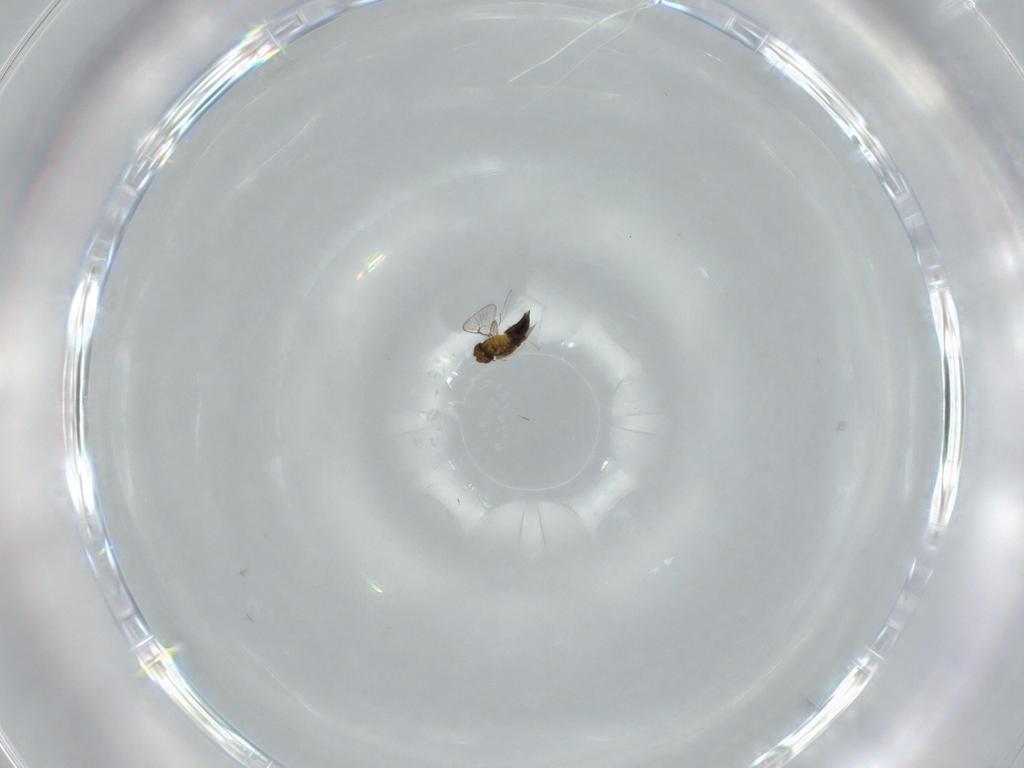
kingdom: Animalia
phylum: Arthropoda
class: Insecta
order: Hymenoptera
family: Trichogrammatidae
